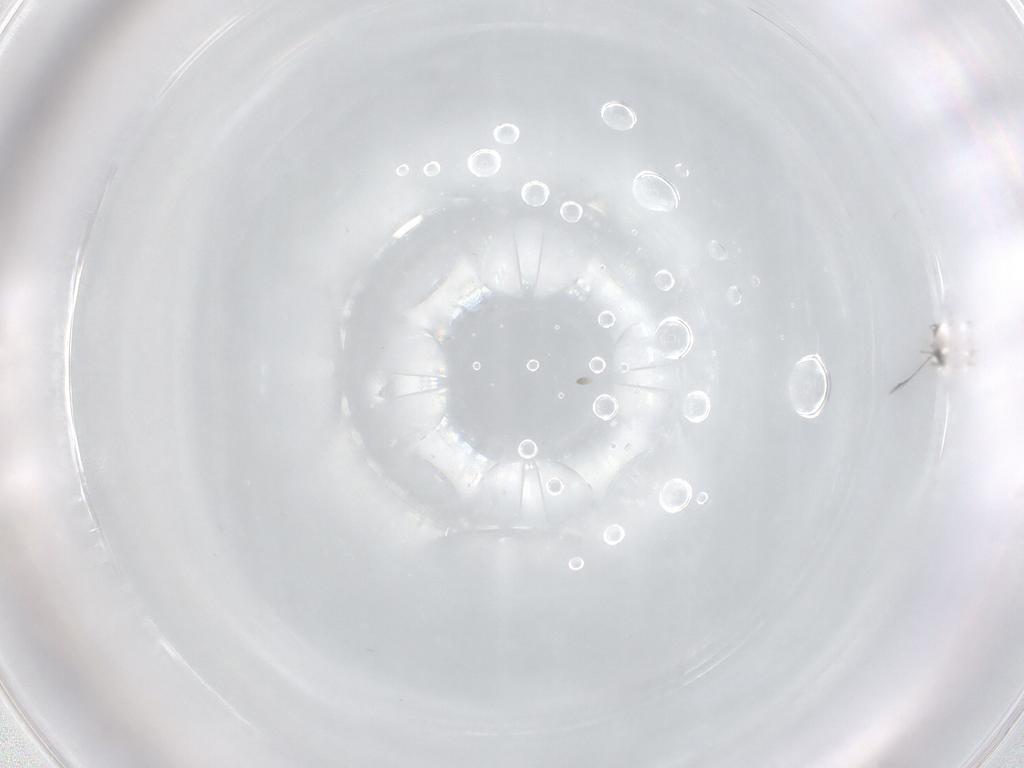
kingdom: Animalia
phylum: Arthropoda
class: Insecta
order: Hymenoptera
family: Mymaridae
